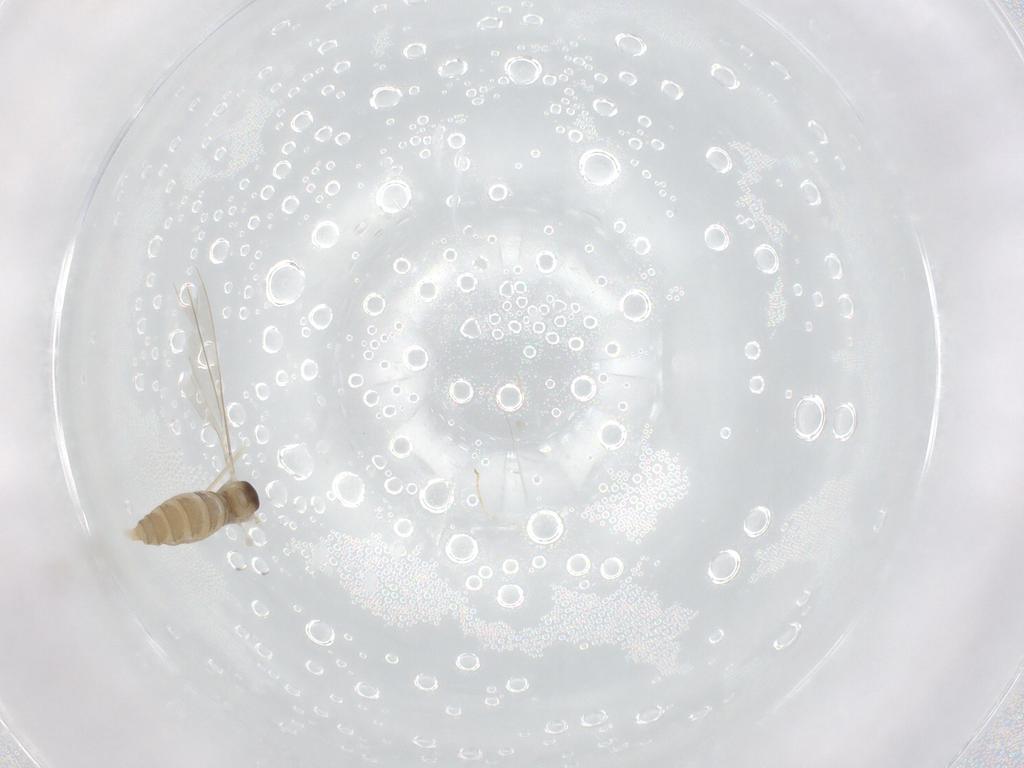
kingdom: Animalia
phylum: Arthropoda
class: Insecta
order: Diptera
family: Cecidomyiidae
